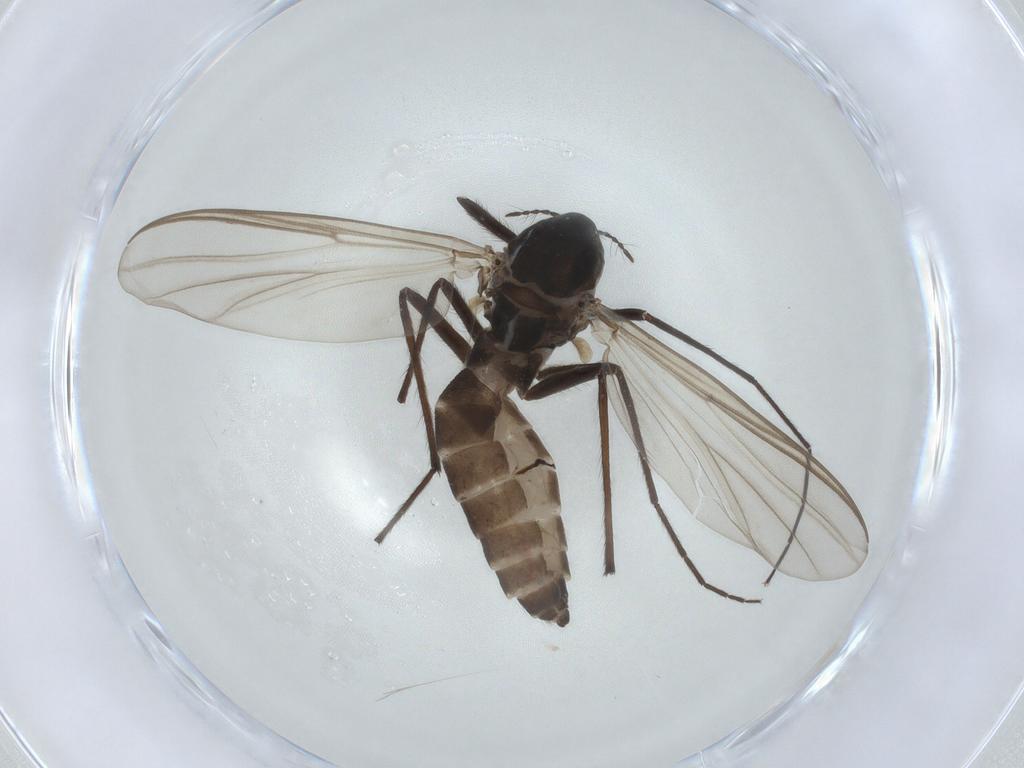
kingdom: Animalia
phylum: Arthropoda
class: Insecta
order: Diptera
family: Chironomidae
